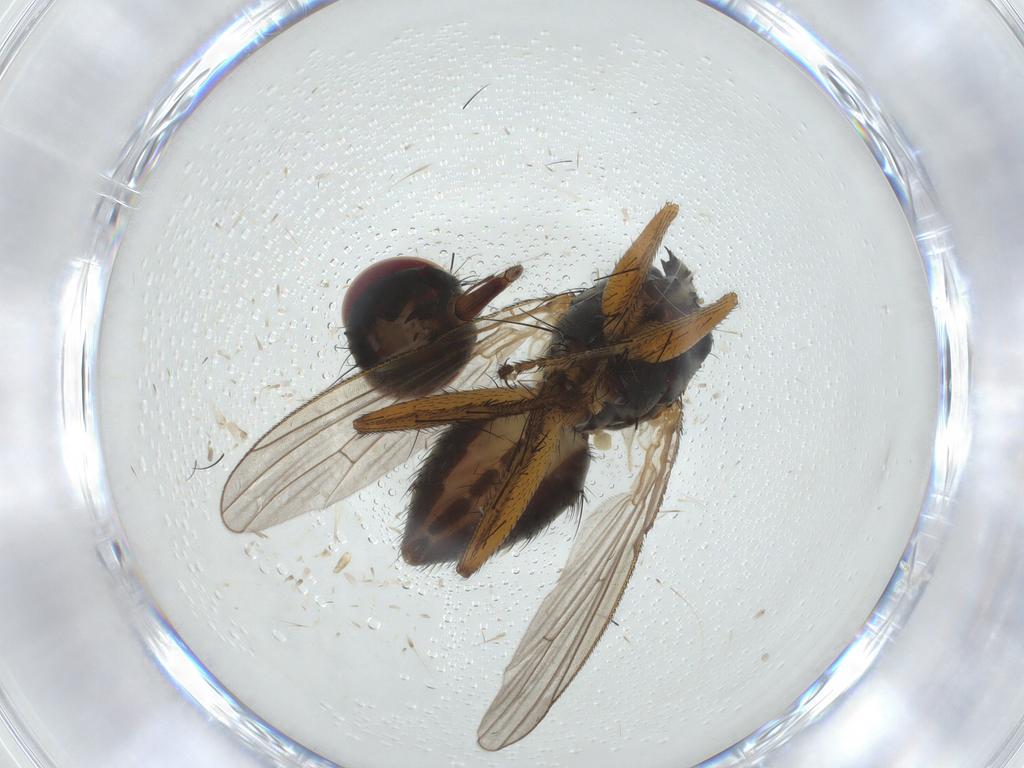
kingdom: Animalia
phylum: Arthropoda
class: Insecta
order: Diptera
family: Muscidae
